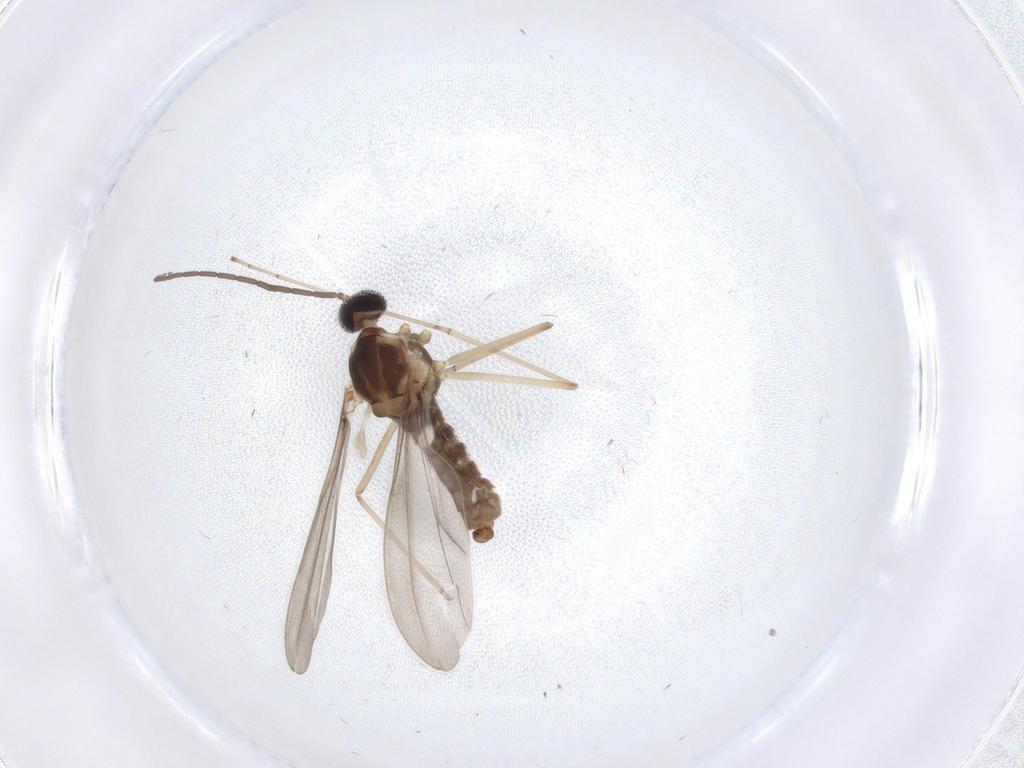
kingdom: Animalia
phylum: Arthropoda
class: Insecta
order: Diptera
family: Cecidomyiidae
